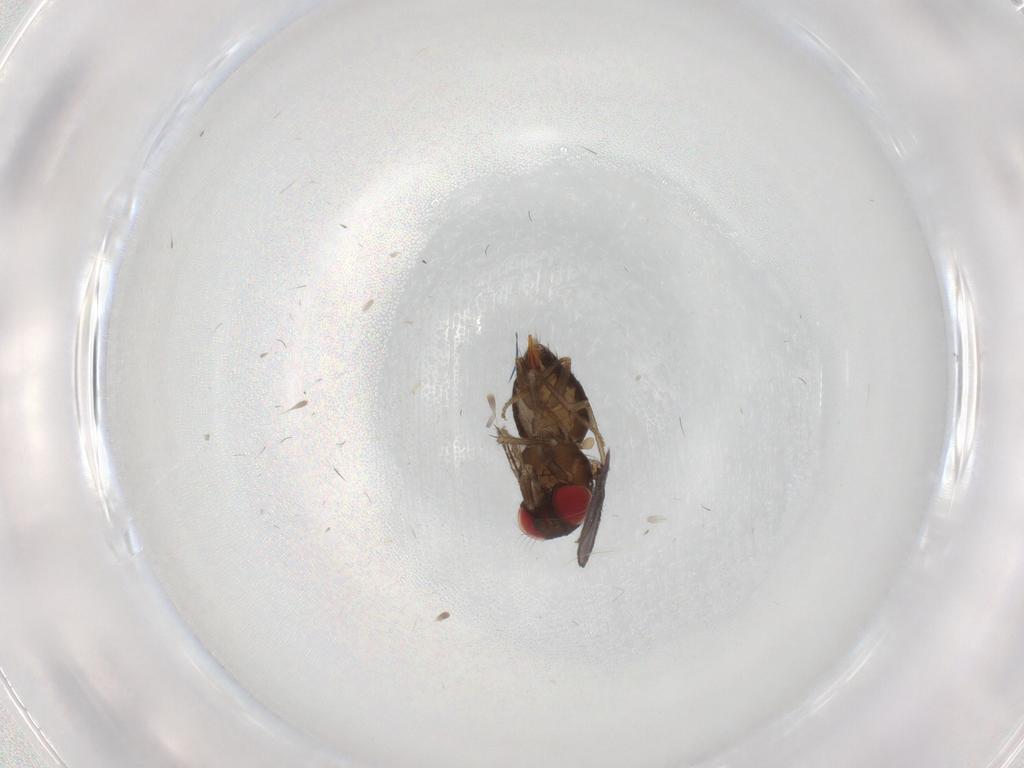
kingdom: Animalia
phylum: Arthropoda
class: Insecta
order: Diptera
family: Drosophilidae
